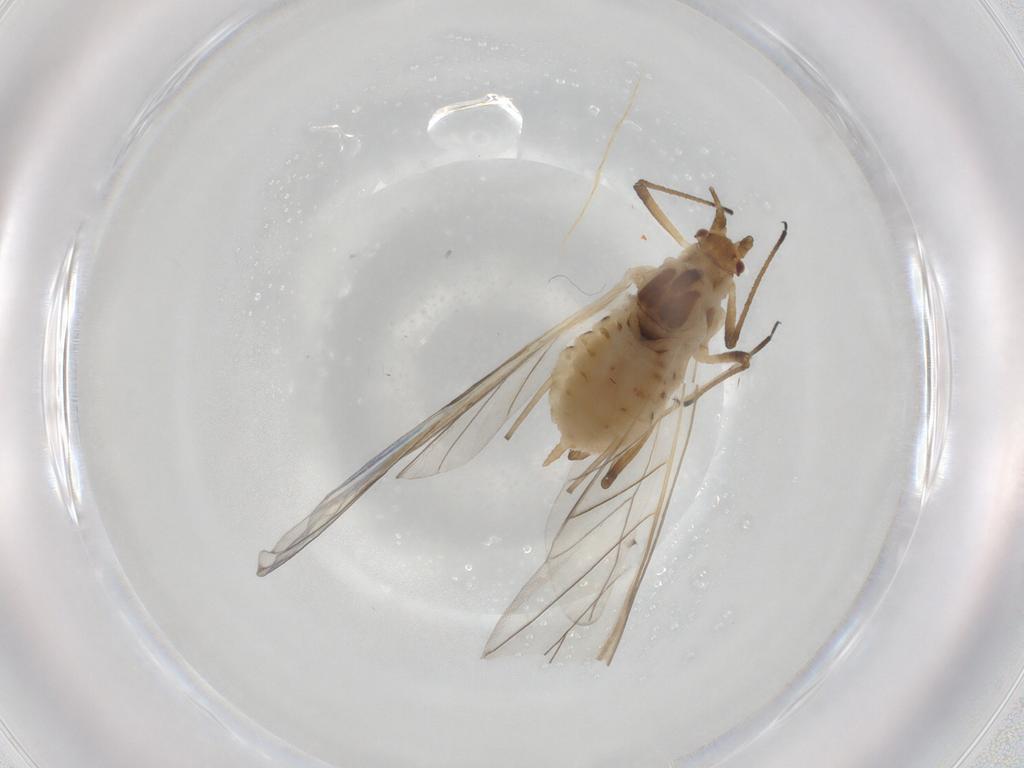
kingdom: Animalia
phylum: Arthropoda
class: Insecta
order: Hemiptera
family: Aphididae
